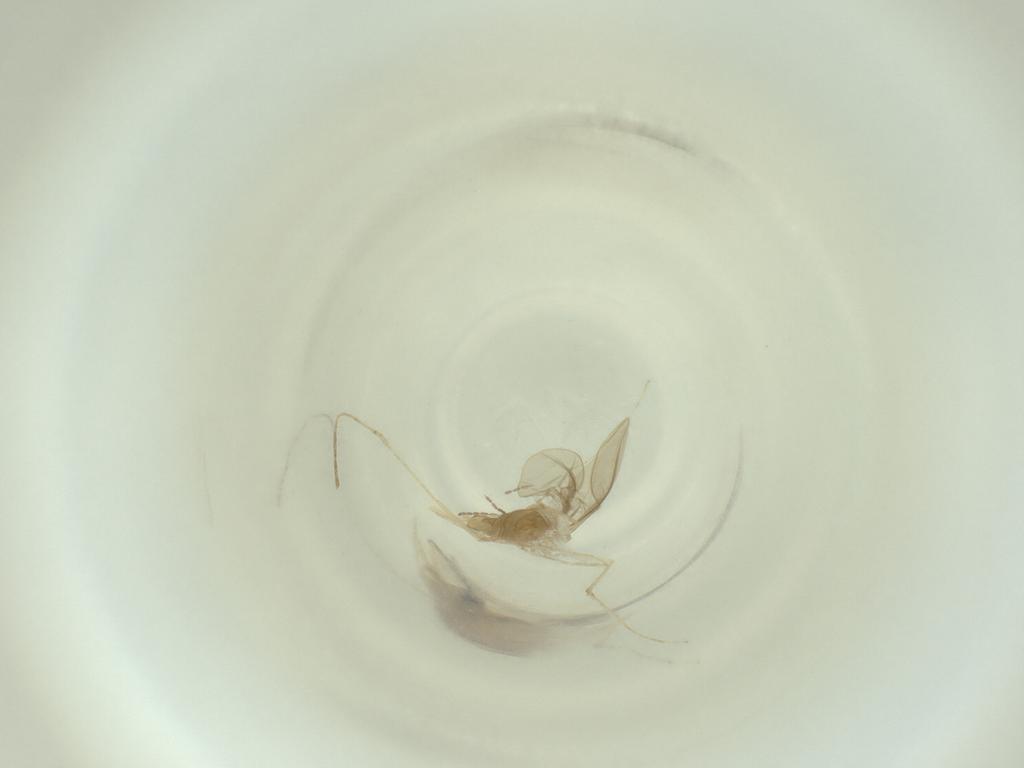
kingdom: Animalia
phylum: Arthropoda
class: Insecta
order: Diptera
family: Cecidomyiidae
